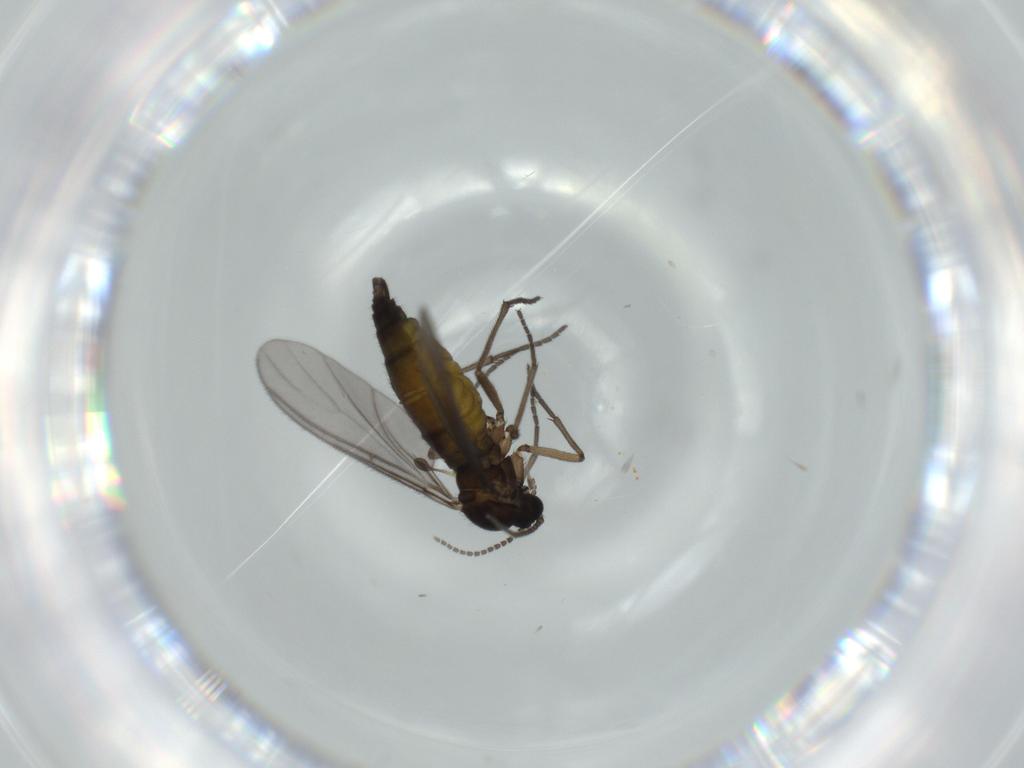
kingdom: Animalia
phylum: Arthropoda
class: Insecta
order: Diptera
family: Sciaridae
